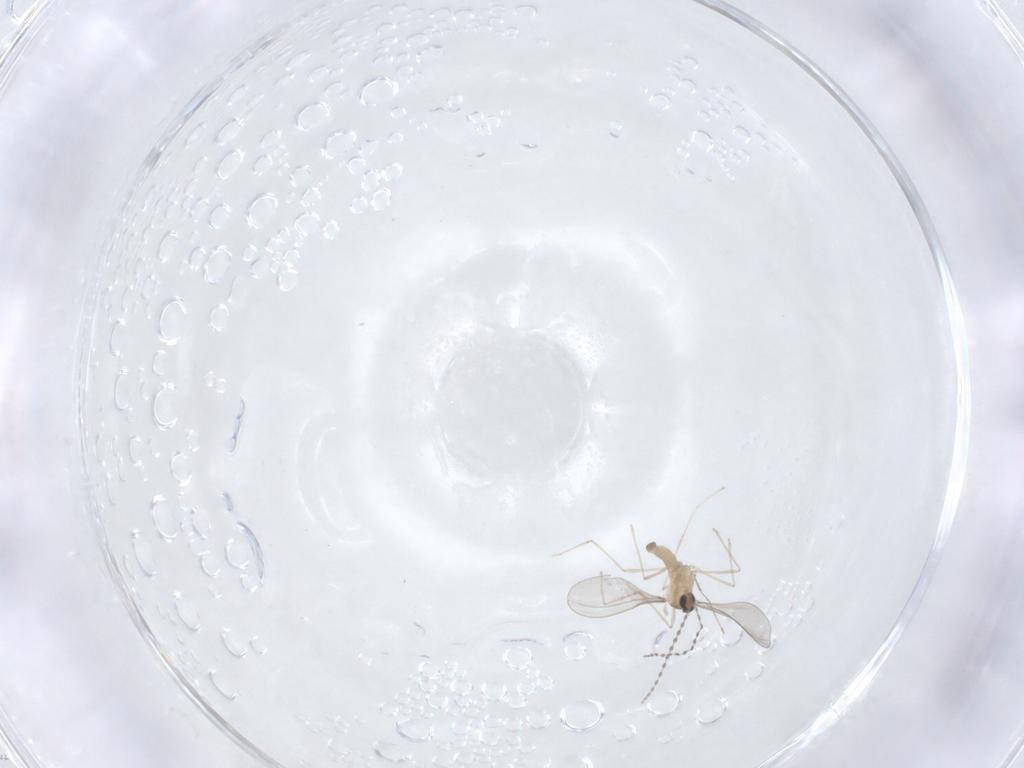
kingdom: Animalia
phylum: Arthropoda
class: Insecta
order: Diptera
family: Cecidomyiidae
